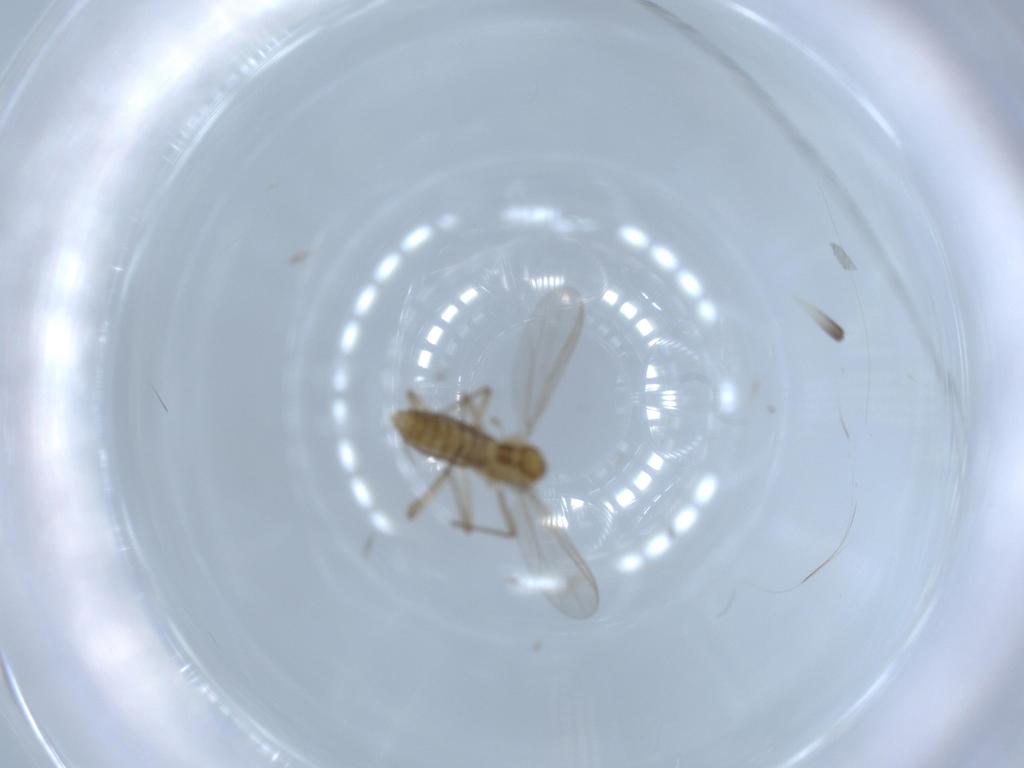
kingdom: Animalia
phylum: Arthropoda
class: Insecta
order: Diptera
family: Chironomidae
